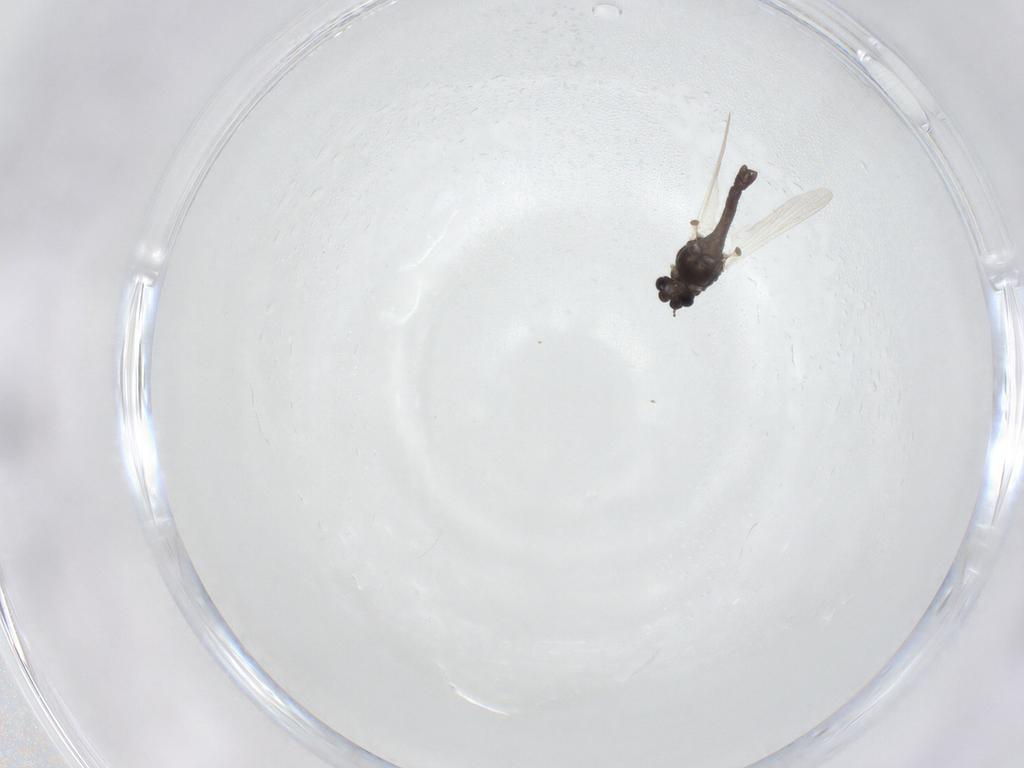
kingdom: Animalia
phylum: Arthropoda
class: Insecta
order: Diptera
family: Chironomidae
